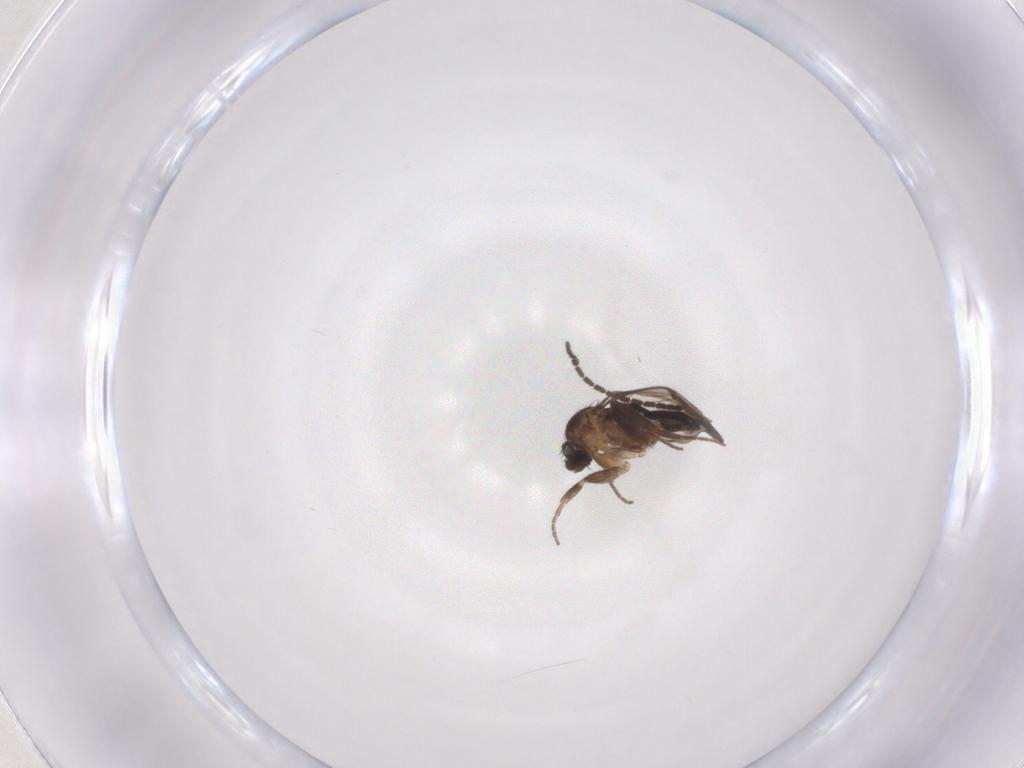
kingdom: Animalia
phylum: Arthropoda
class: Insecta
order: Diptera
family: Sciaridae
